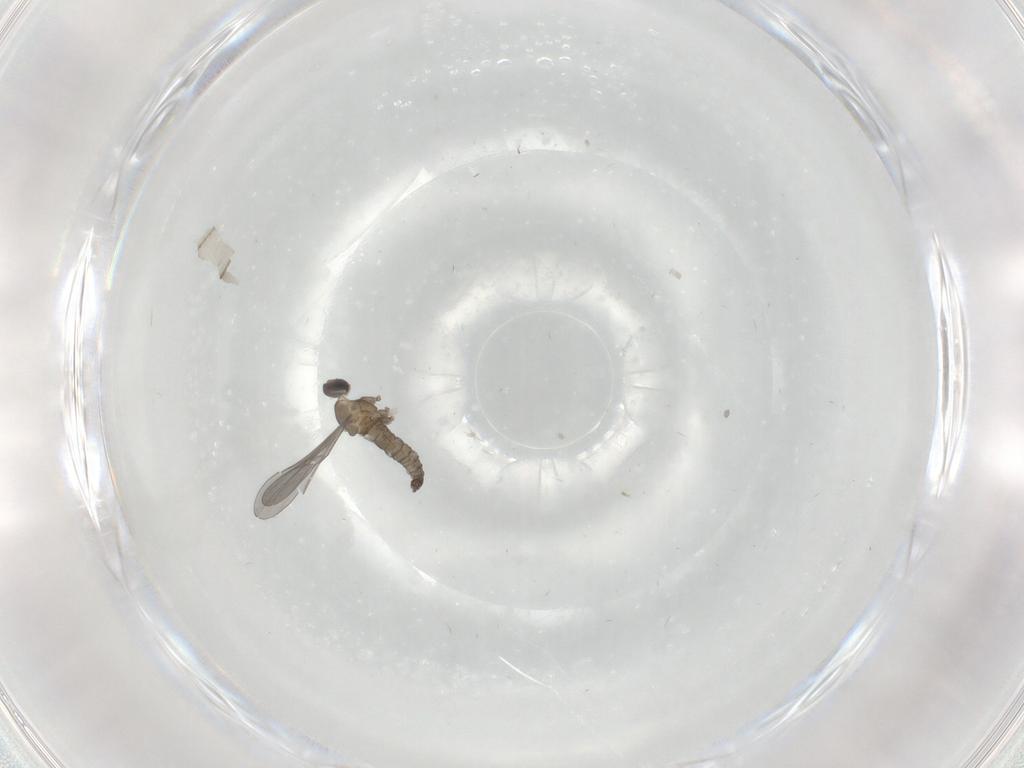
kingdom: Animalia
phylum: Arthropoda
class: Insecta
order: Diptera
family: Cecidomyiidae
